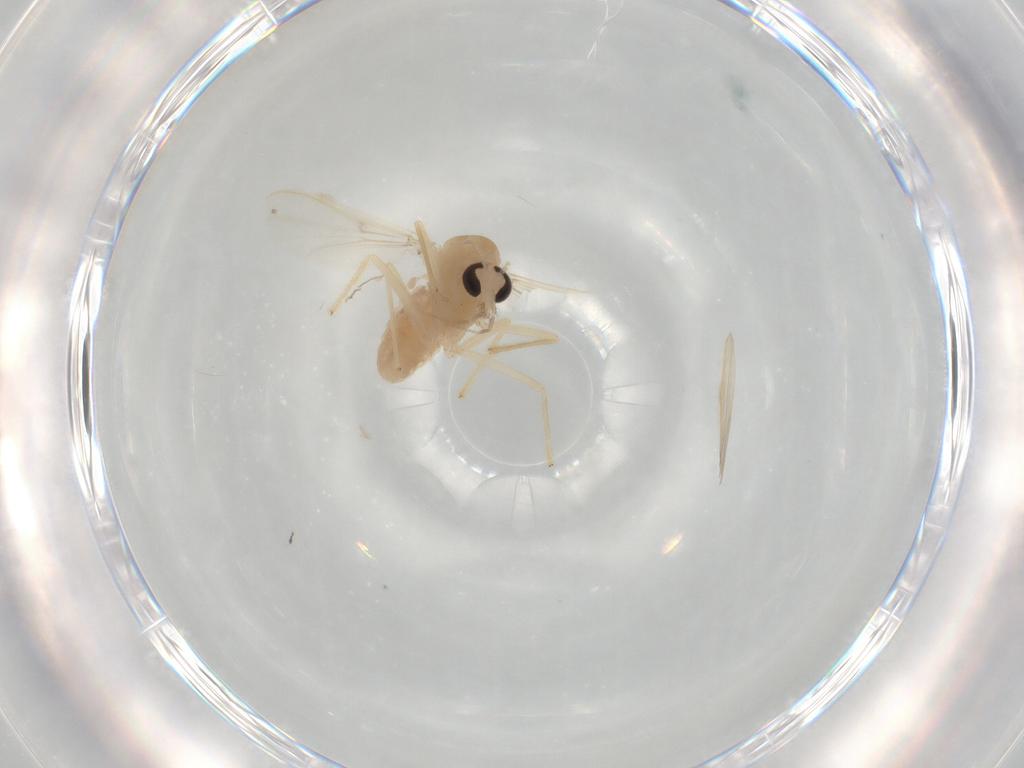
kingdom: Animalia
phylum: Arthropoda
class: Insecta
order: Diptera
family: Chironomidae
